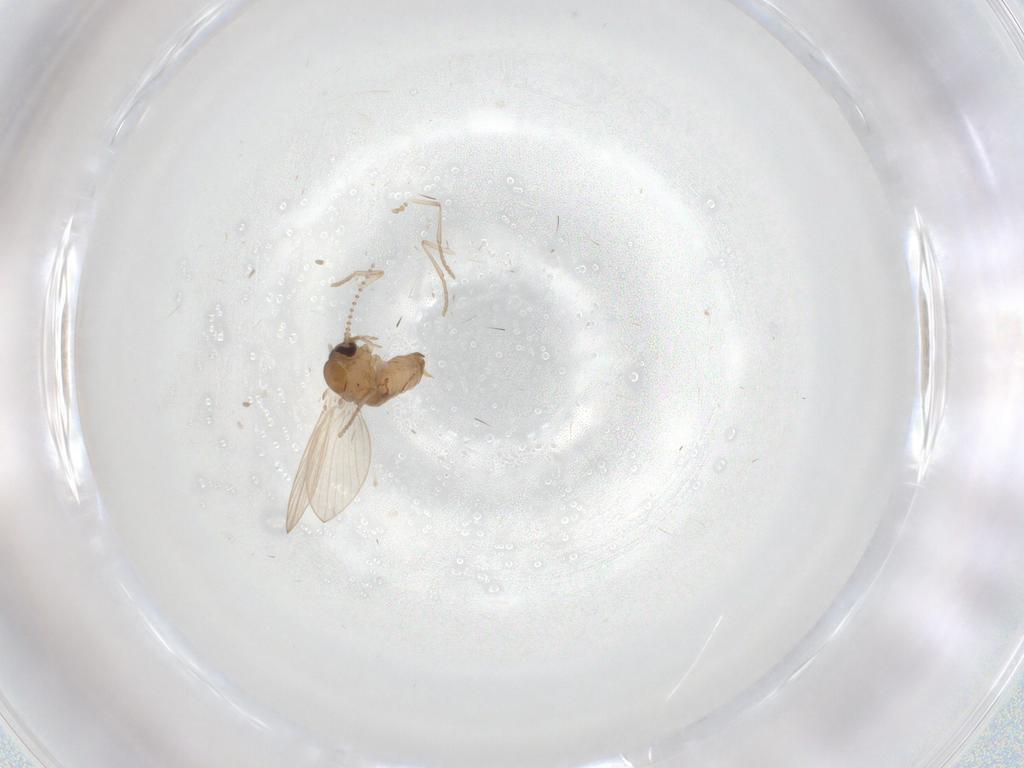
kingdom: Animalia
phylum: Arthropoda
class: Insecta
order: Diptera
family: Psychodidae
